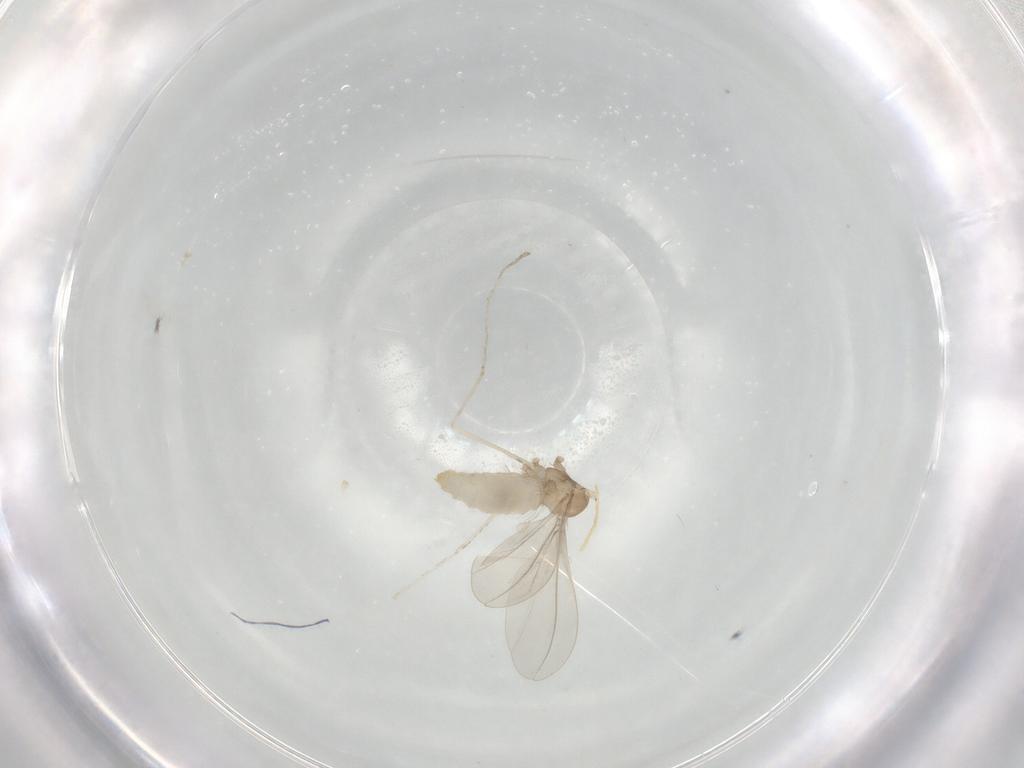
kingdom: Animalia
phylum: Arthropoda
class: Insecta
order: Diptera
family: Cecidomyiidae
